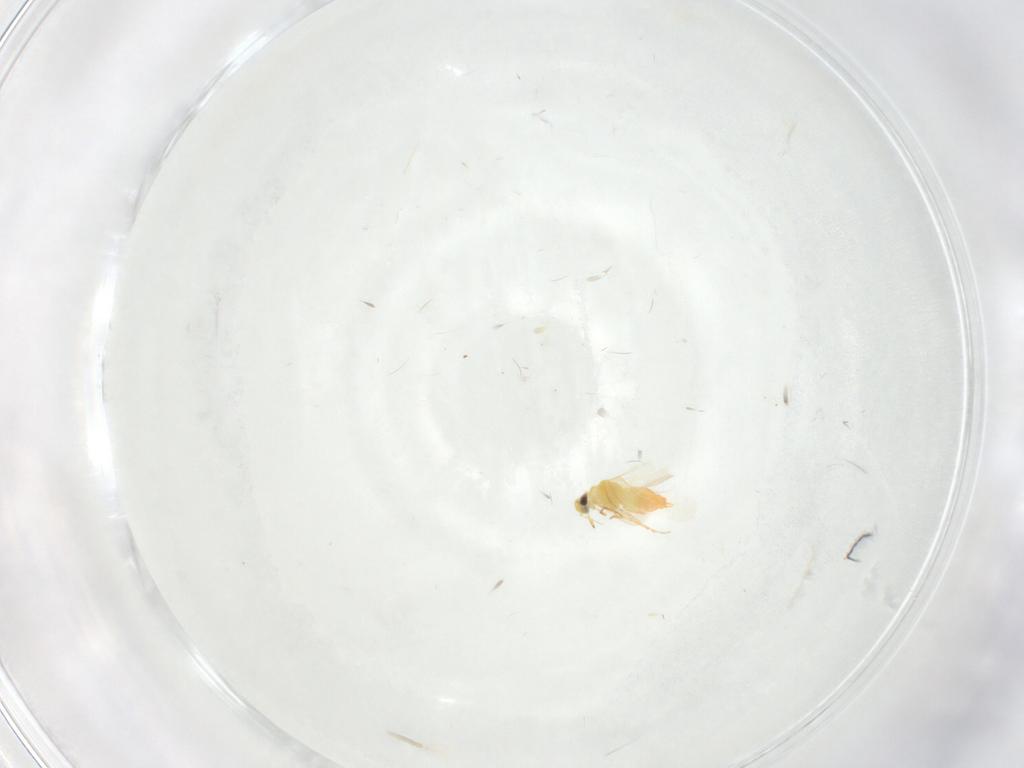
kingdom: Animalia
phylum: Arthropoda
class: Insecta
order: Hemiptera
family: Aleyrodidae
